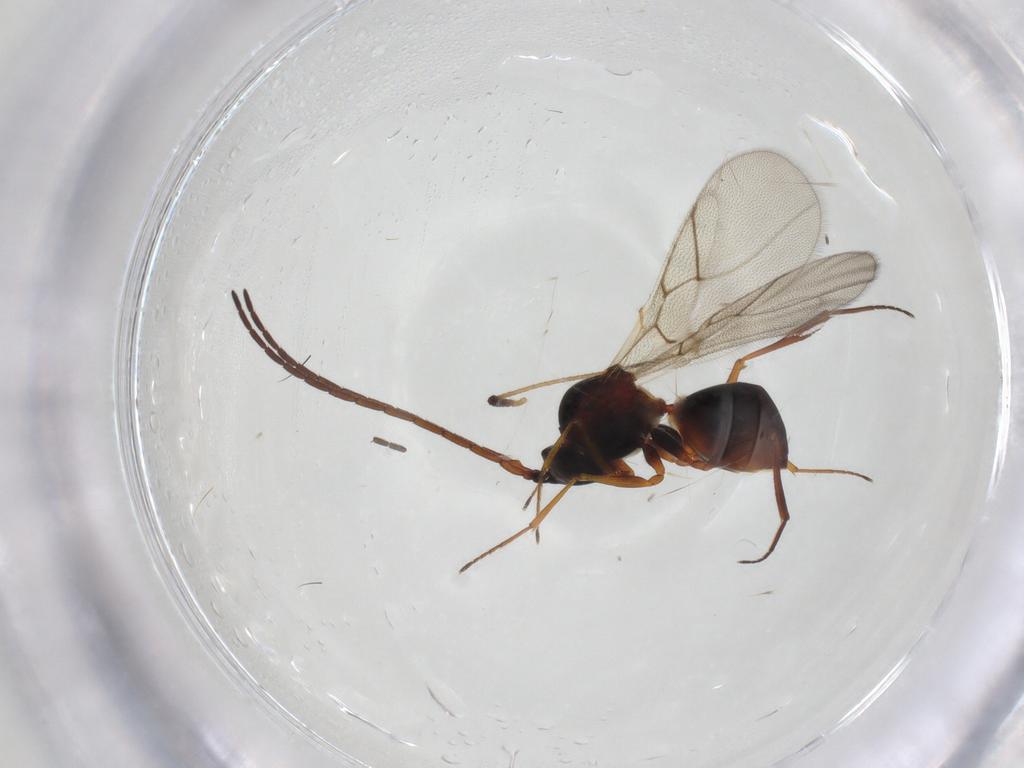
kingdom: Animalia
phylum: Arthropoda
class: Insecta
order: Hymenoptera
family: Figitidae
